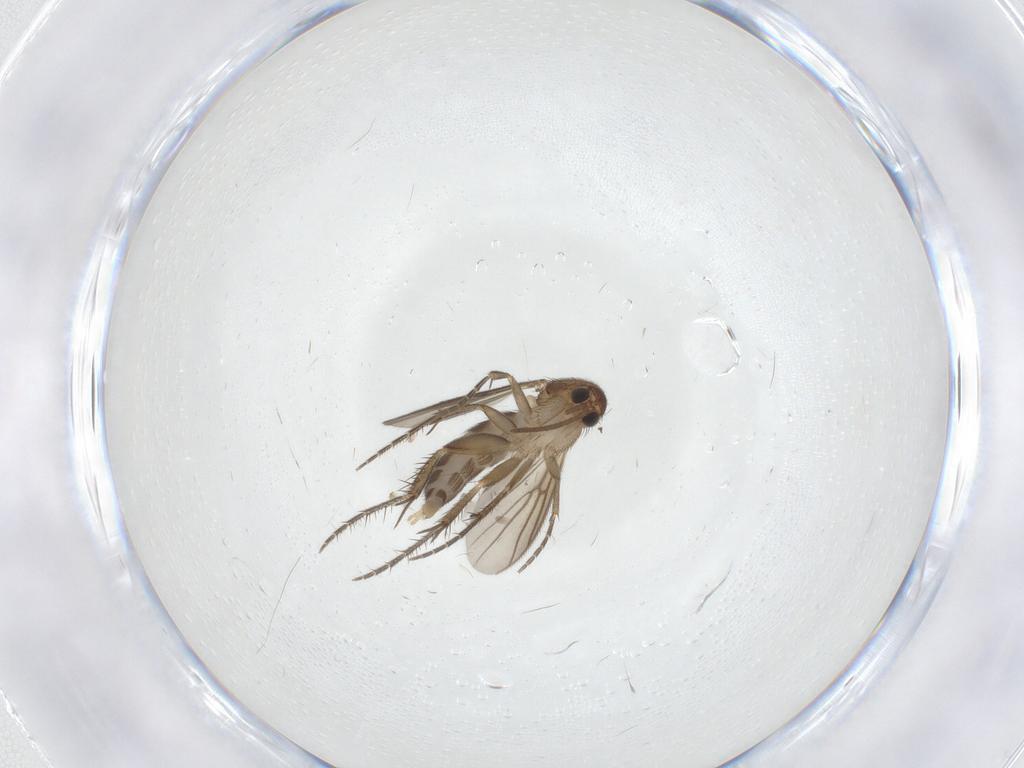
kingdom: Animalia
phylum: Arthropoda
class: Insecta
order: Diptera
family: Mycetophilidae
